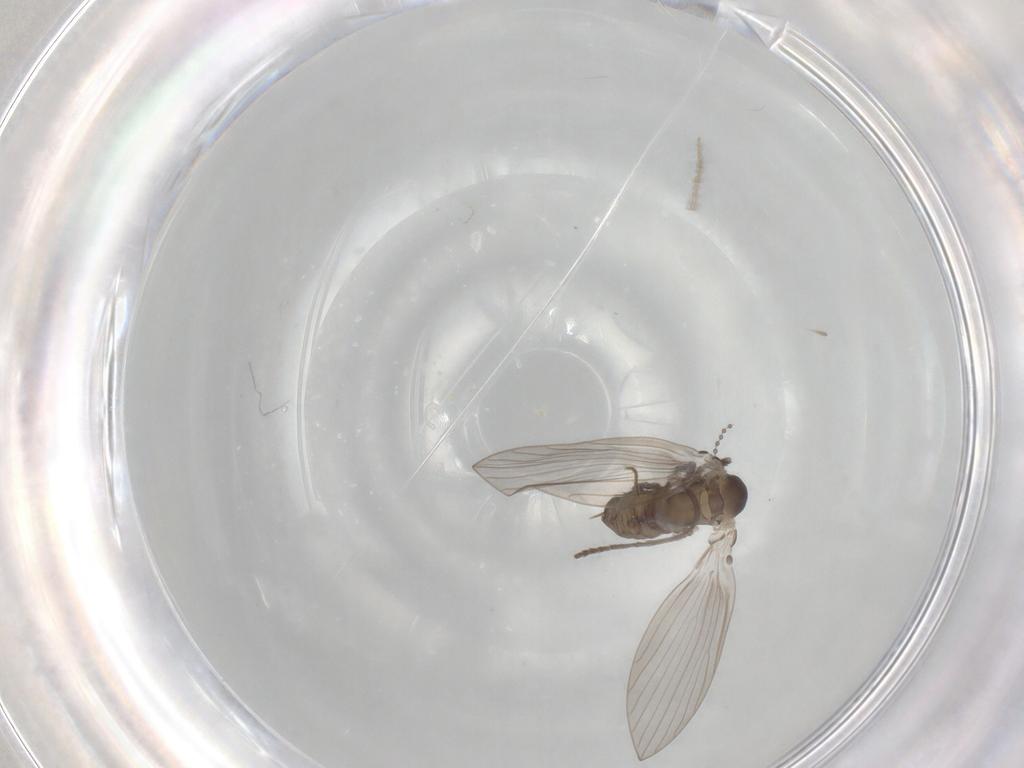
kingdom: Animalia
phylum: Arthropoda
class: Insecta
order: Diptera
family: Psychodidae
